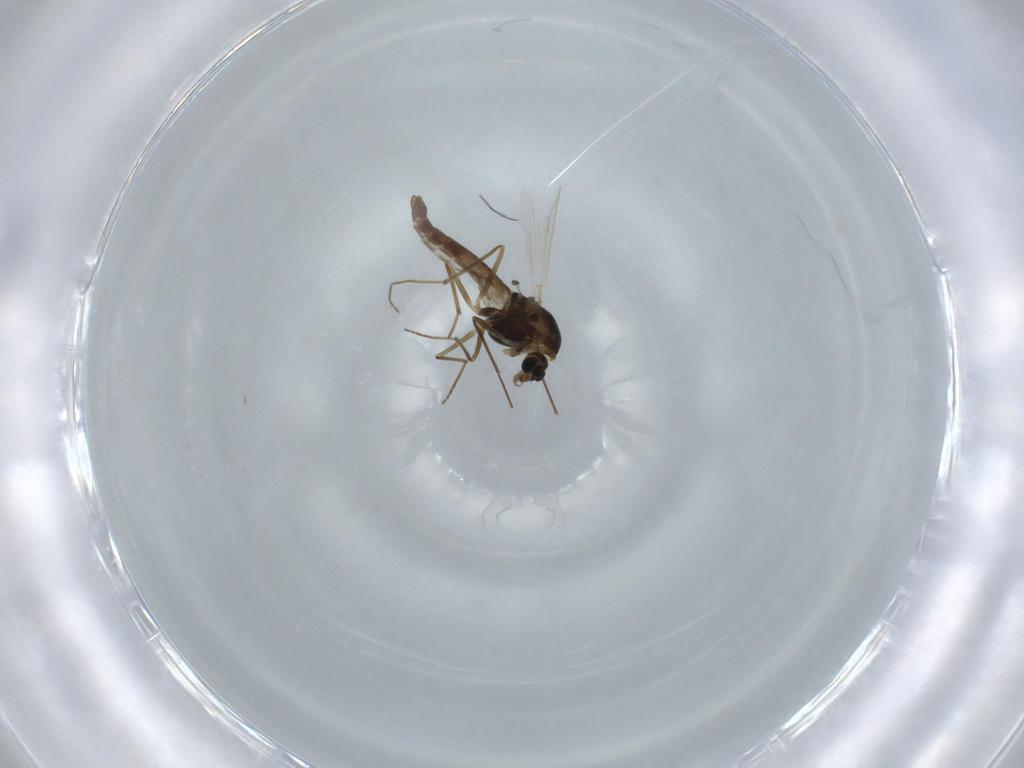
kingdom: Animalia
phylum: Arthropoda
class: Insecta
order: Diptera
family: Chironomidae
